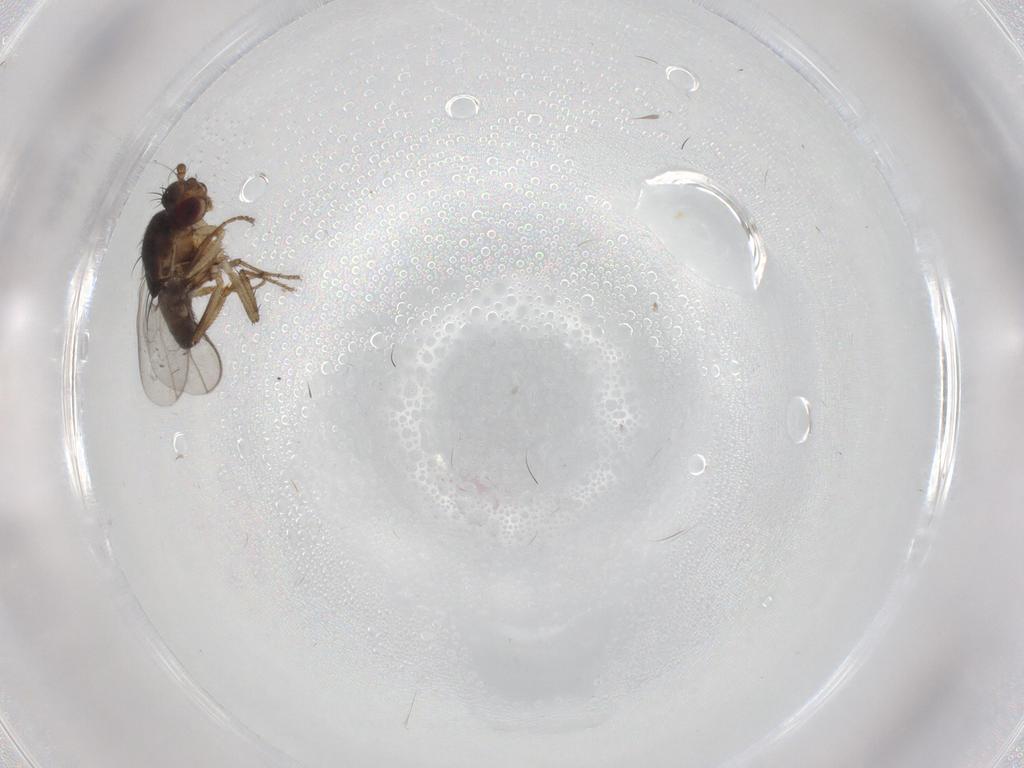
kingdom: Animalia
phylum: Arthropoda
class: Insecta
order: Diptera
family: Sphaeroceridae
